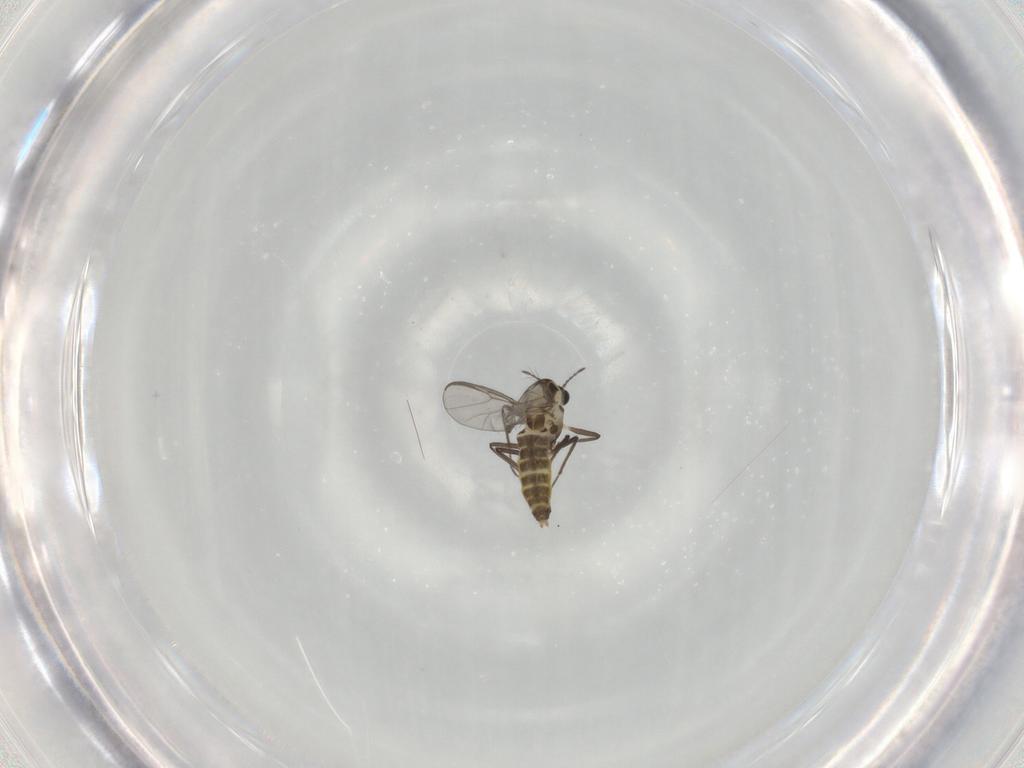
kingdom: Animalia
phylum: Arthropoda
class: Insecta
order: Diptera
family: Chironomidae
